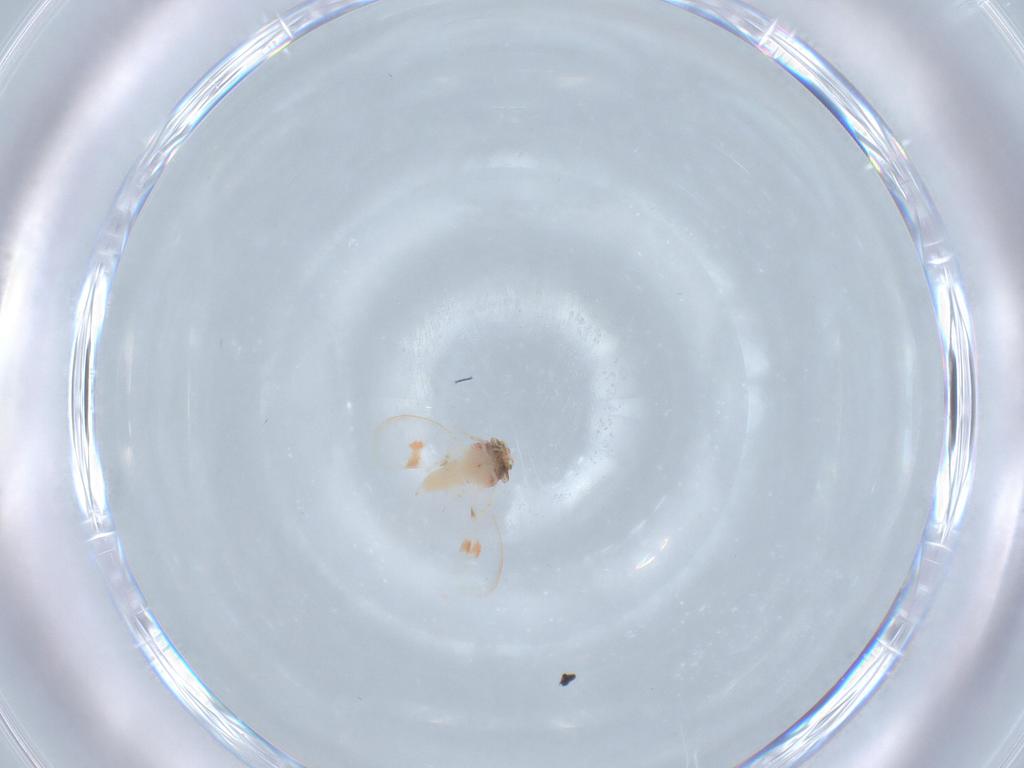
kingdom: Animalia
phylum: Arthropoda
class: Insecta
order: Hemiptera
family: Aleyrodidae
